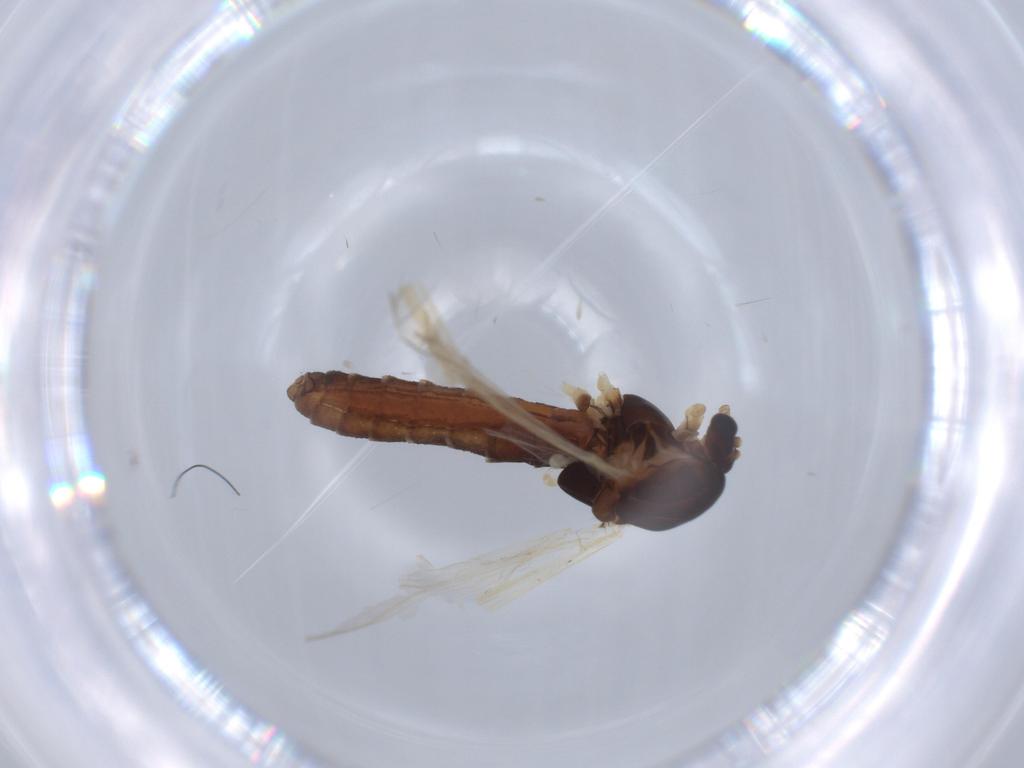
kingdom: Animalia
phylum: Arthropoda
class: Insecta
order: Diptera
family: Chironomidae
